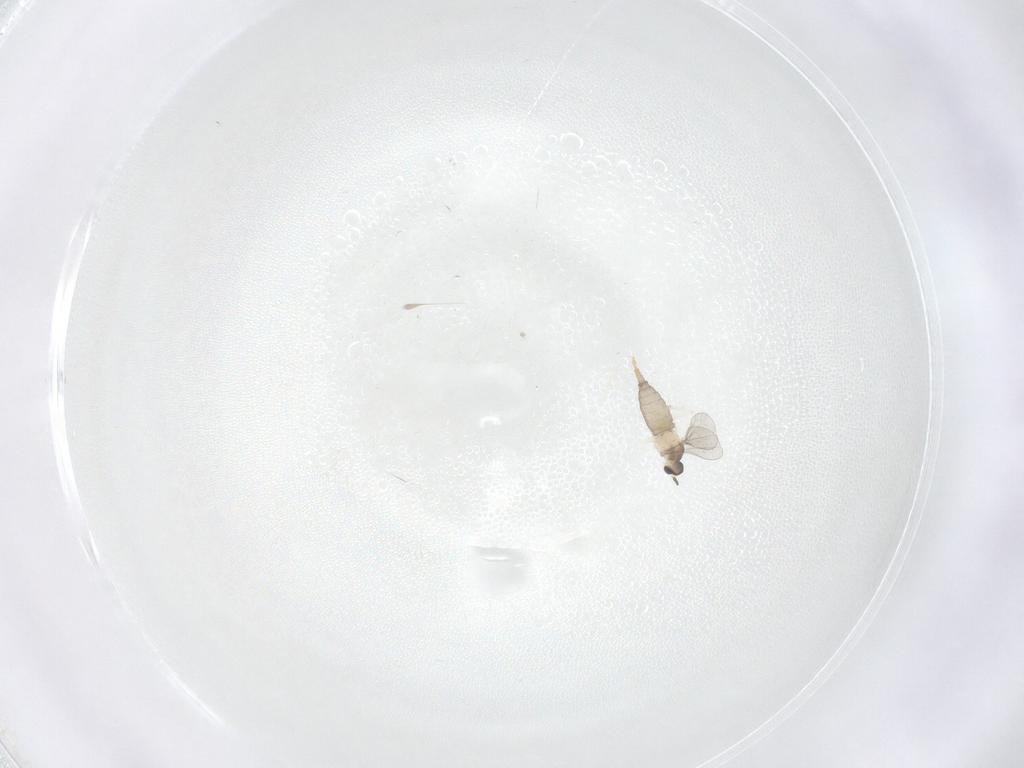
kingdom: Animalia
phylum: Arthropoda
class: Insecta
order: Diptera
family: Cecidomyiidae
